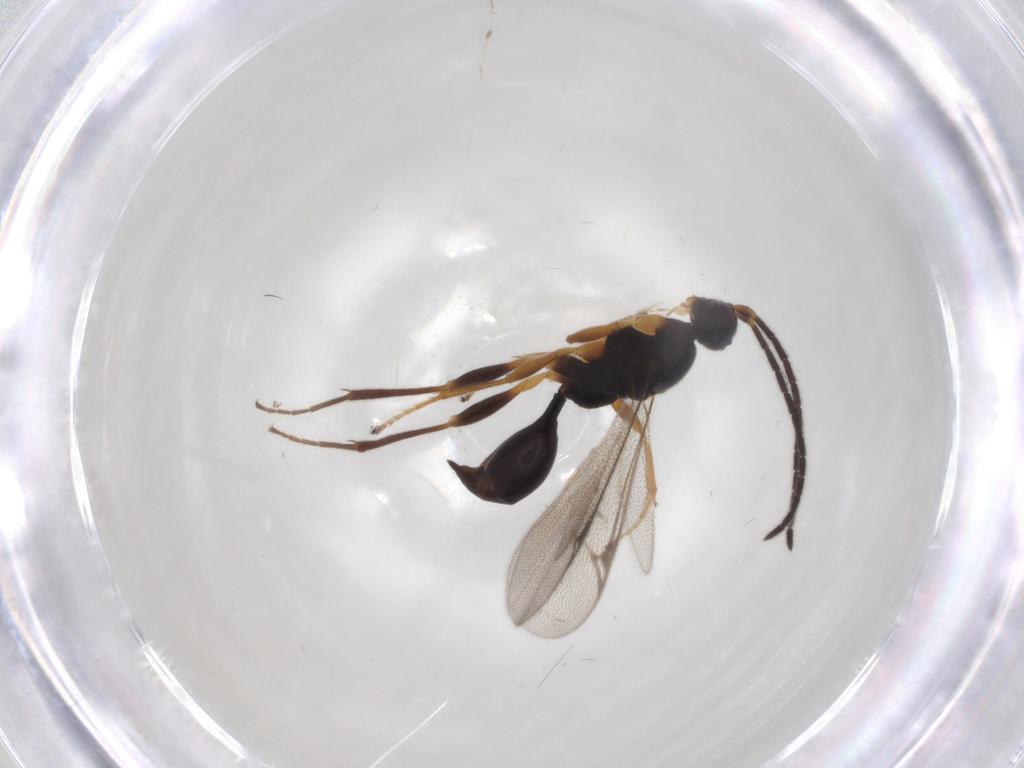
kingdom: Animalia
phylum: Arthropoda
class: Insecta
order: Hymenoptera
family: Proctotrupidae
